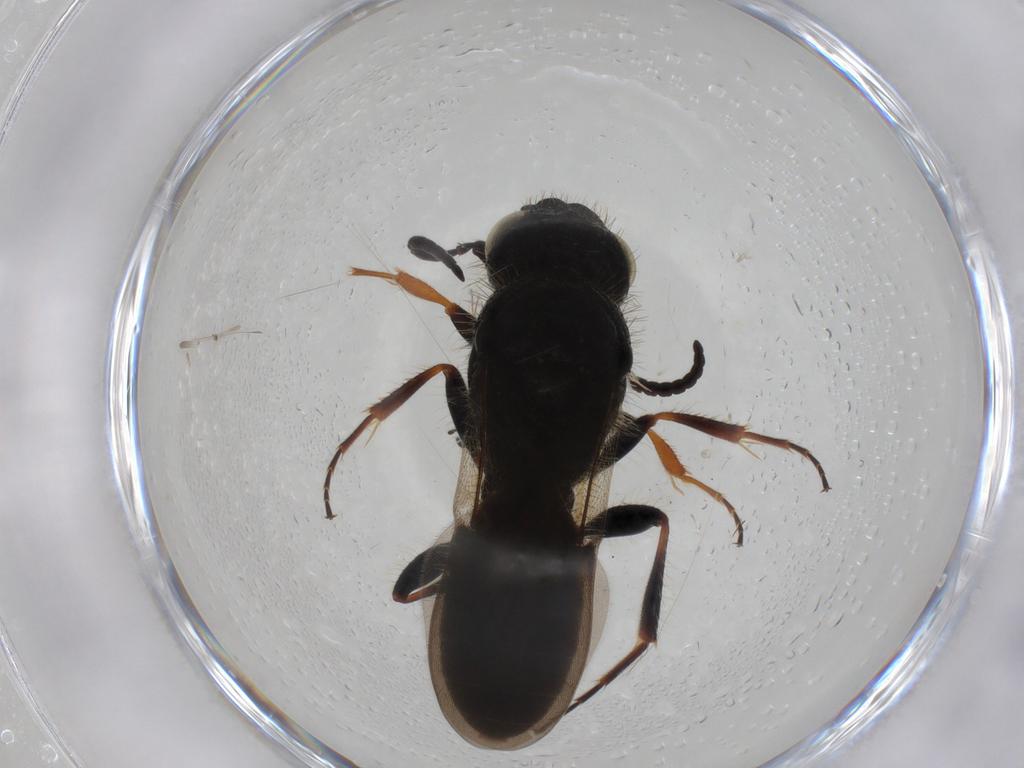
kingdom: Animalia
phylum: Arthropoda
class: Insecta
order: Hymenoptera
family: Scelionidae
